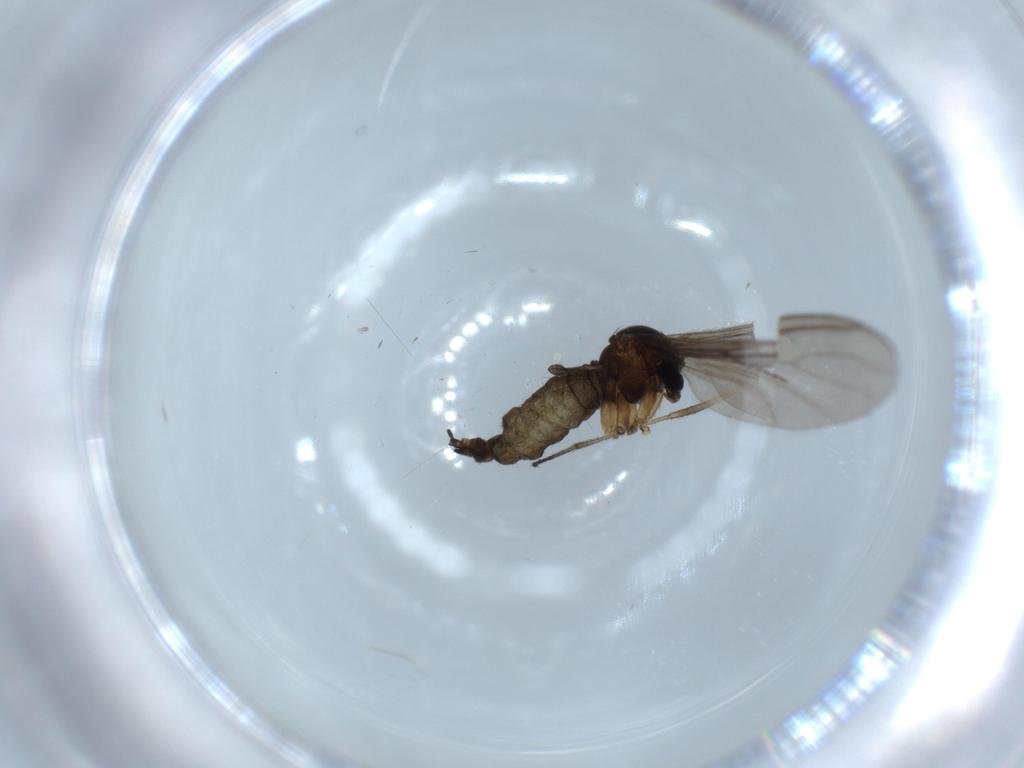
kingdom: Animalia
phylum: Arthropoda
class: Insecta
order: Diptera
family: Sciaridae
